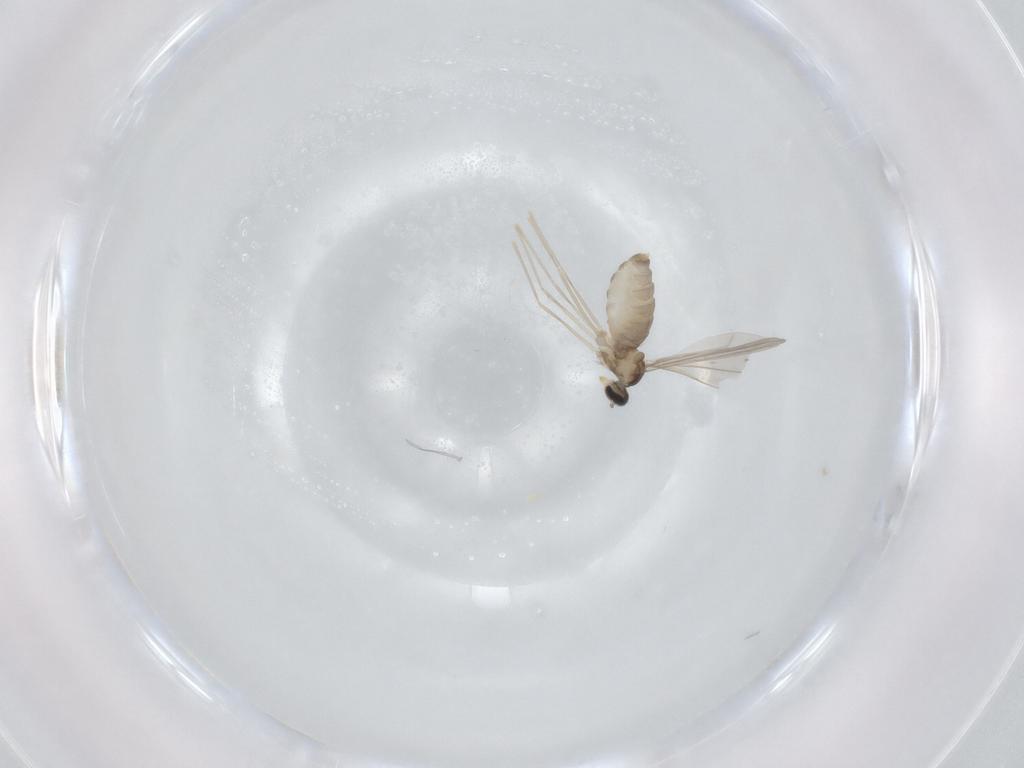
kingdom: Animalia
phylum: Arthropoda
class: Insecta
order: Diptera
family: Cecidomyiidae
